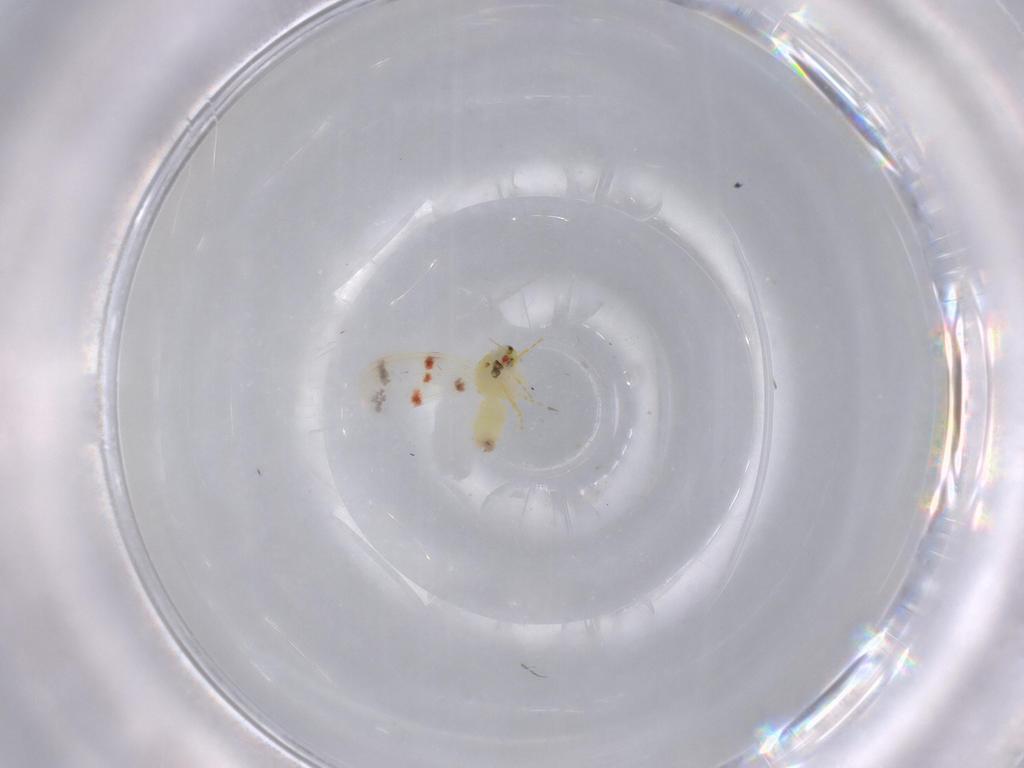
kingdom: Animalia
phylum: Arthropoda
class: Insecta
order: Hemiptera
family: Aleyrodidae
